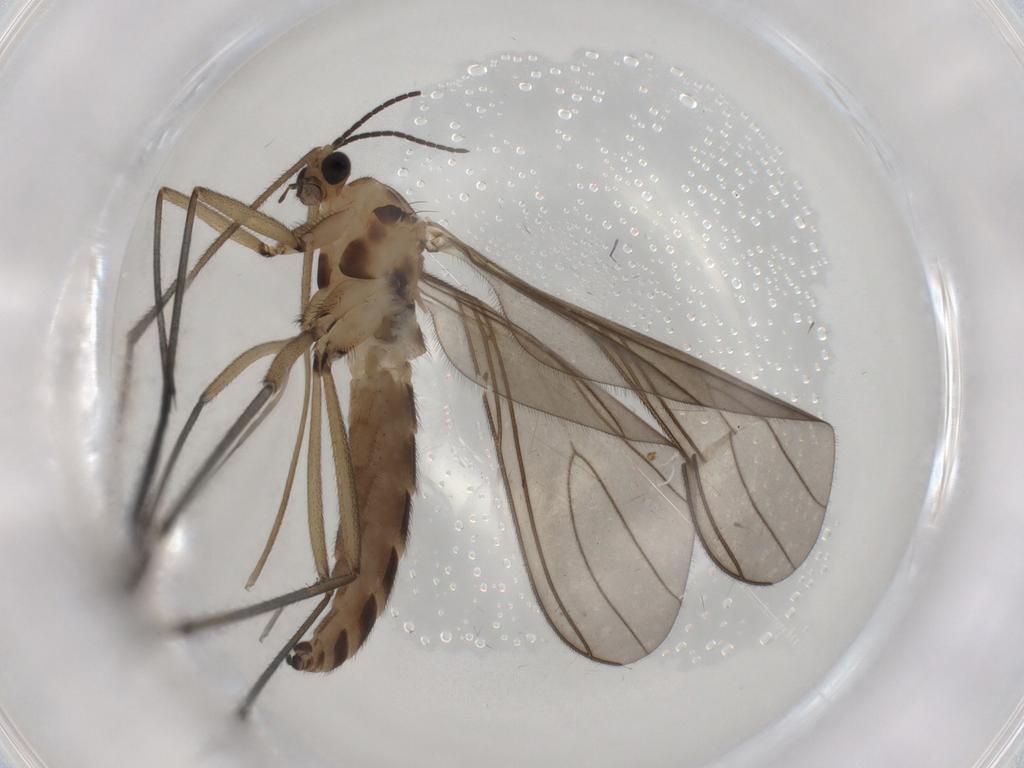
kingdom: Animalia
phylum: Arthropoda
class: Insecta
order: Diptera
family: Sciaridae
